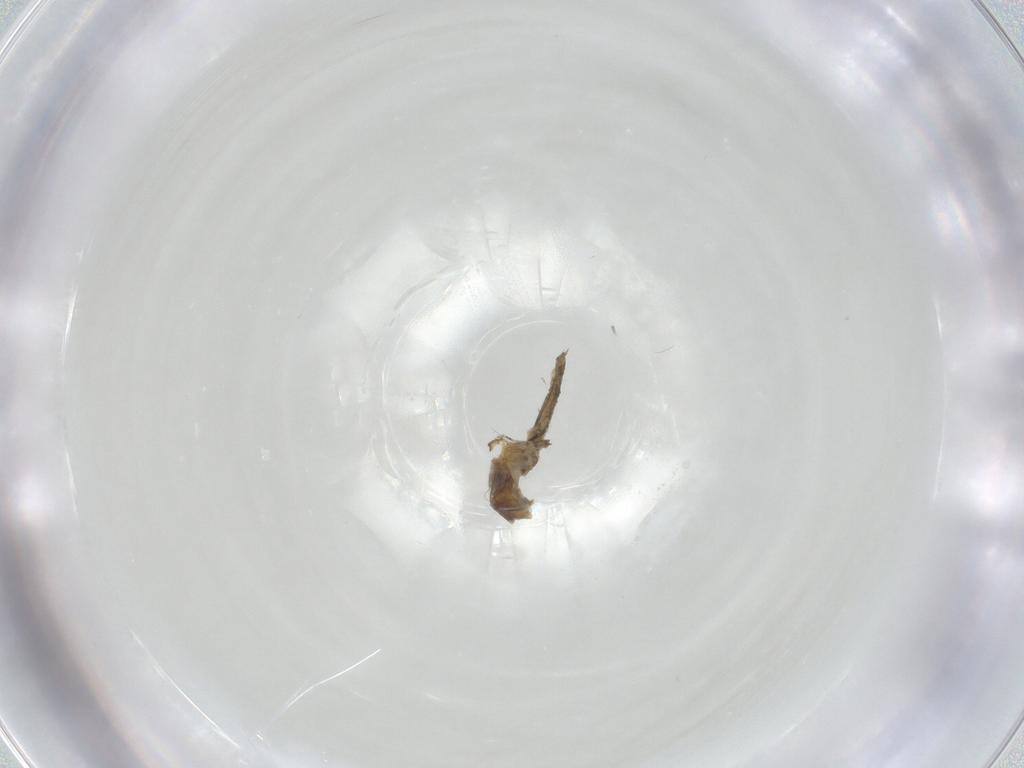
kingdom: Animalia
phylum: Arthropoda
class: Insecta
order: Diptera
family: Cecidomyiidae
